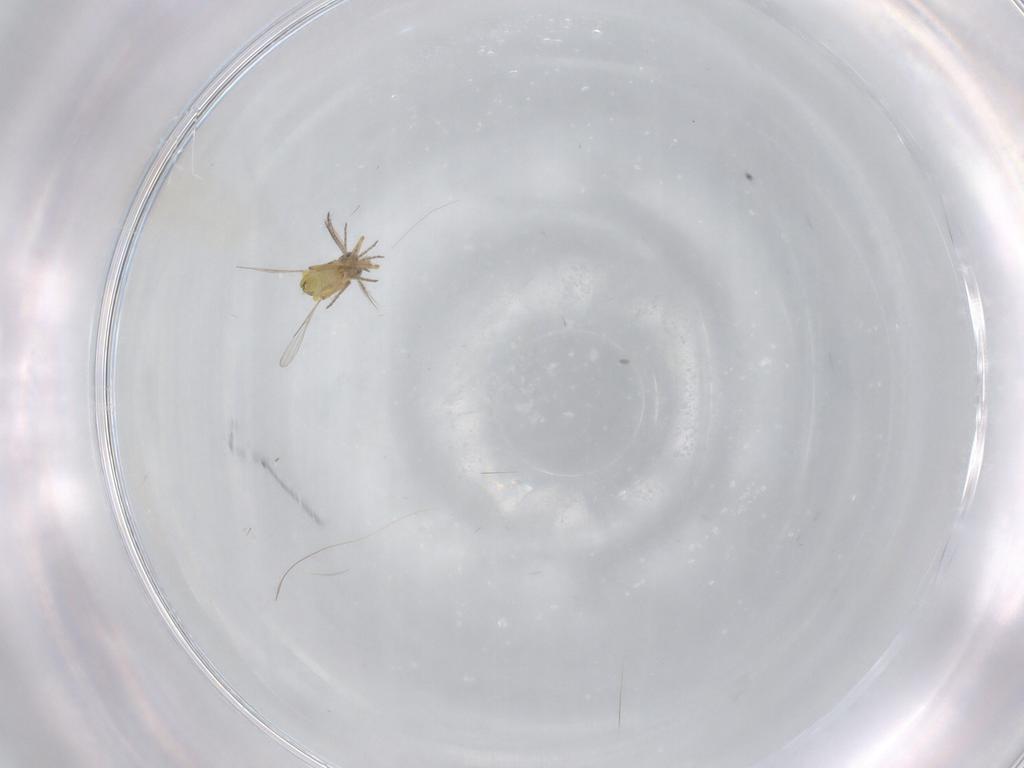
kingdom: Animalia
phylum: Arthropoda
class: Insecta
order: Diptera
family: Ceratopogonidae
